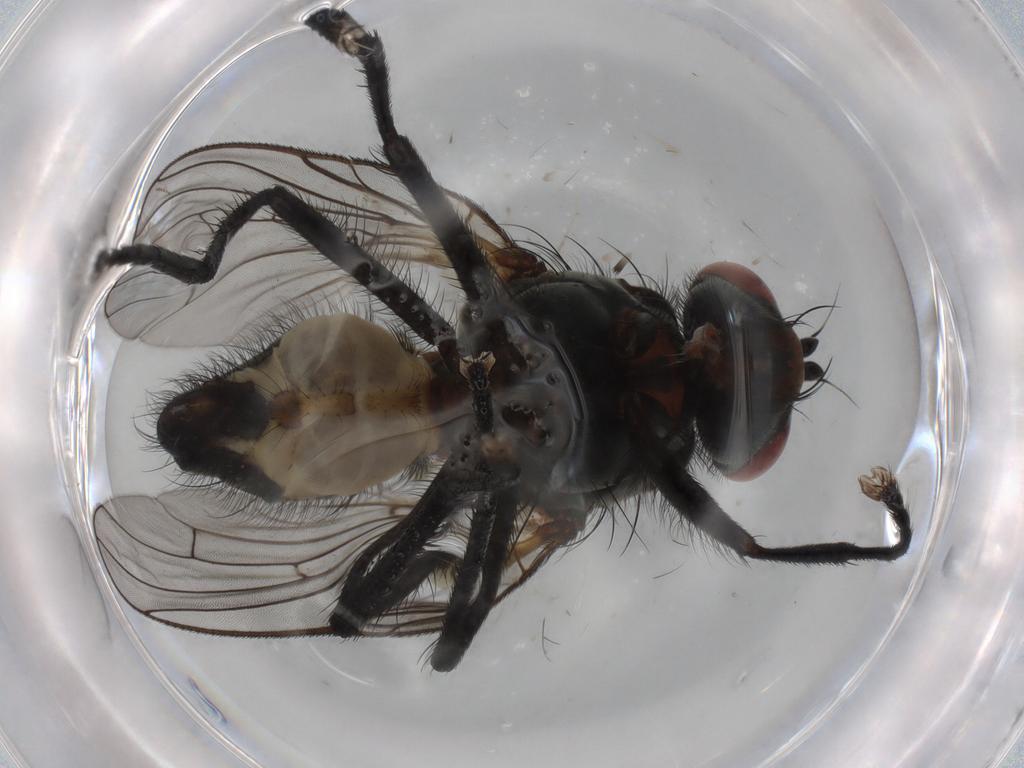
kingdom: Animalia
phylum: Arthropoda
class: Insecta
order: Diptera
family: Anthomyiidae
